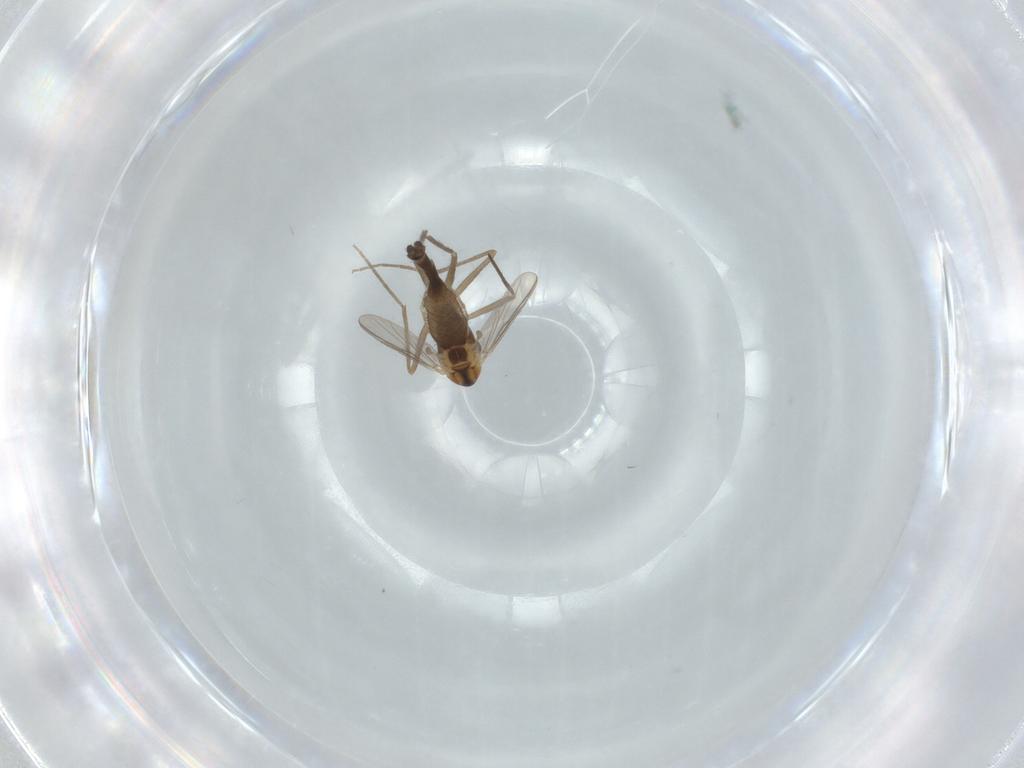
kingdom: Animalia
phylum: Arthropoda
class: Insecta
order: Diptera
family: Chironomidae
